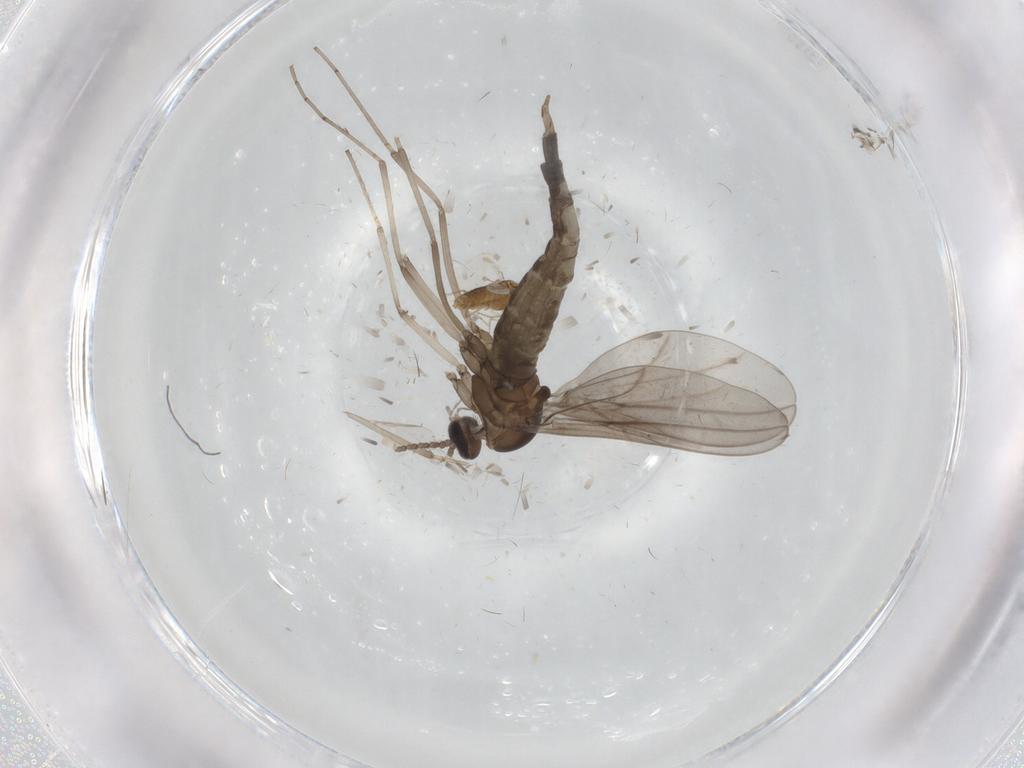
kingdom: Animalia
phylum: Arthropoda
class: Insecta
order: Diptera
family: Cecidomyiidae
